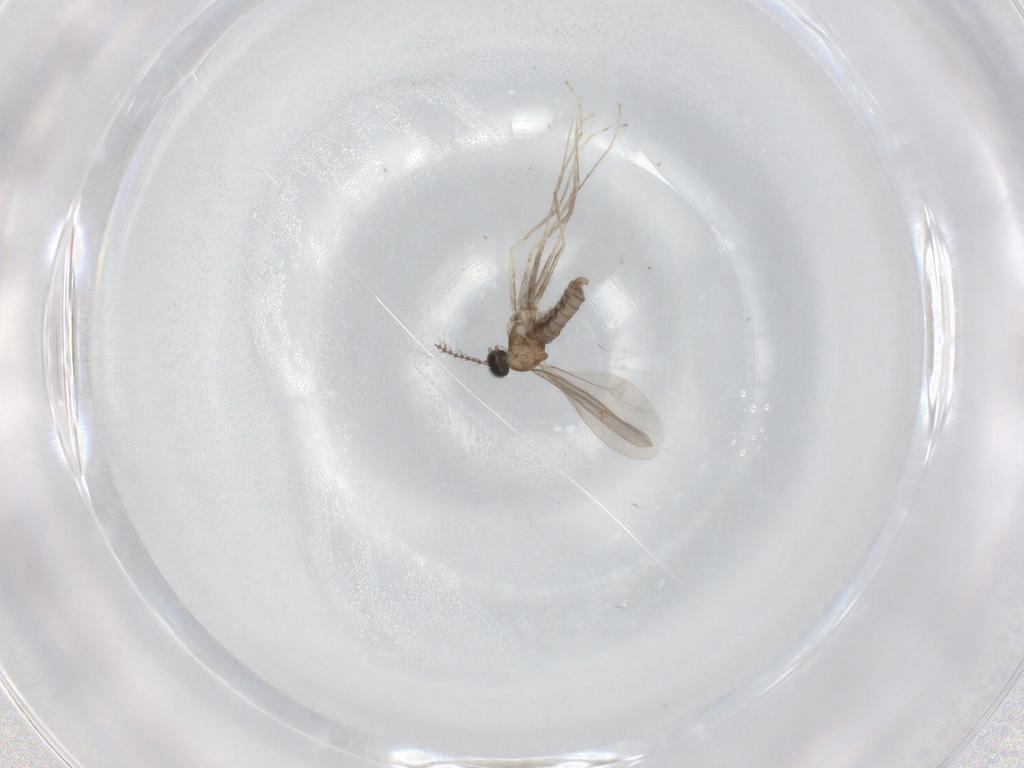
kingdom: Animalia
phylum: Arthropoda
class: Insecta
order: Diptera
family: Cecidomyiidae
